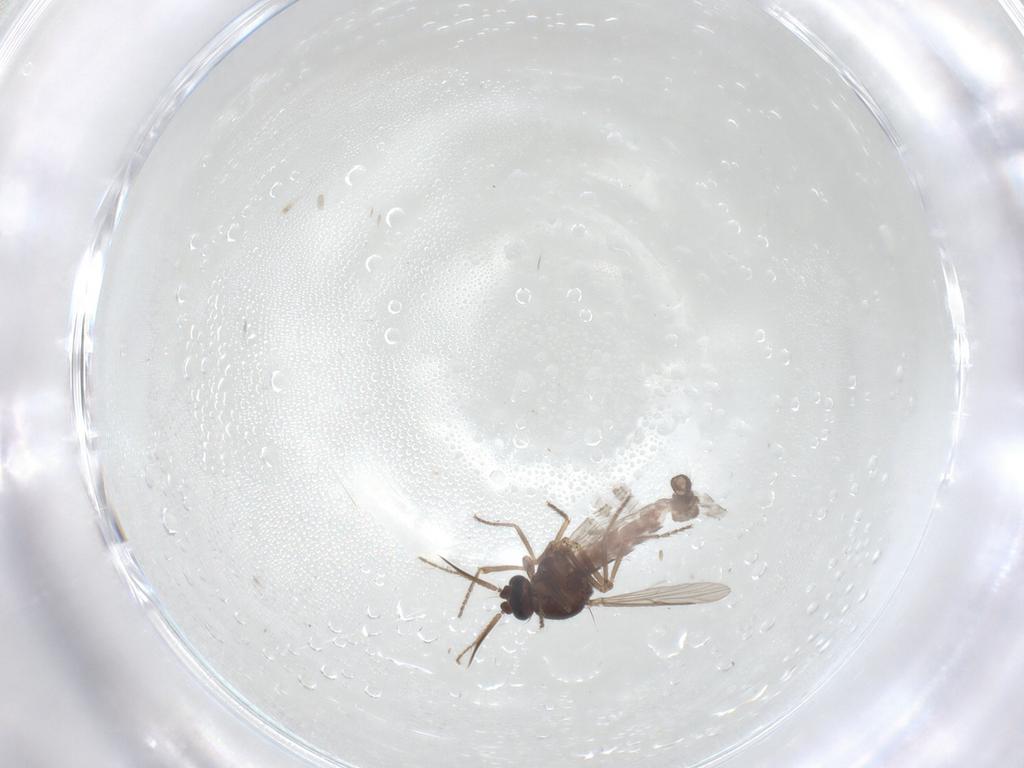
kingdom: Animalia
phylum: Arthropoda
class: Insecta
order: Diptera
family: Ceratopogonidae
